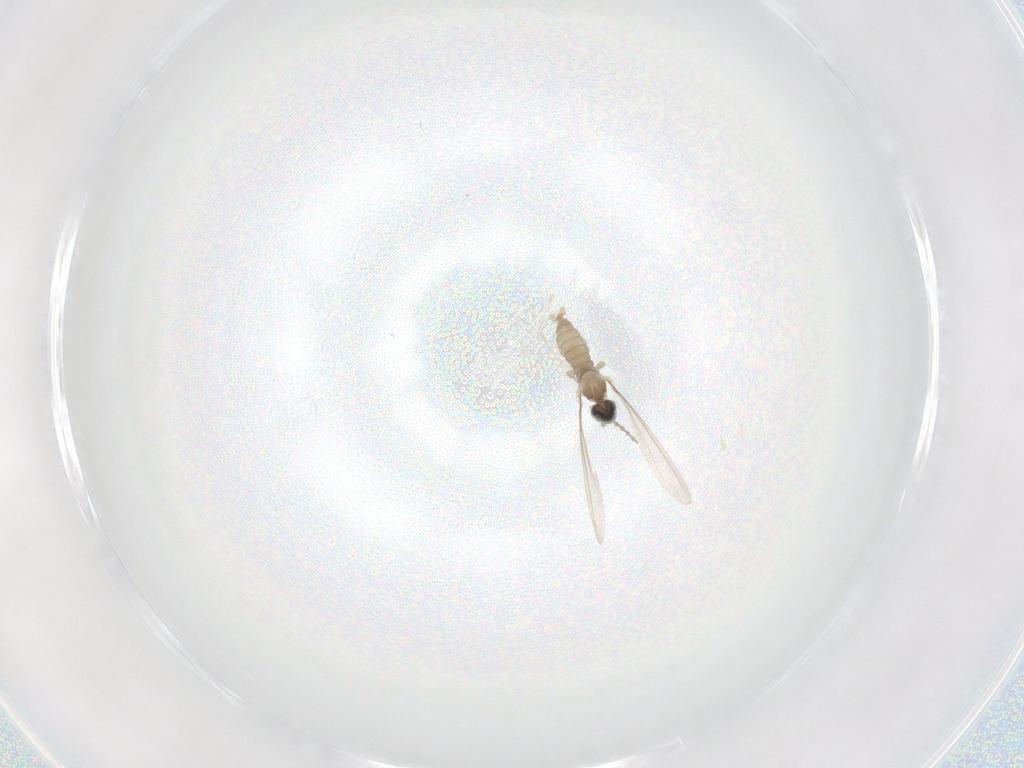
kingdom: Animalia
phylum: Arthropoda
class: Insecta
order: Diptera
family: Cecidomyiidae
